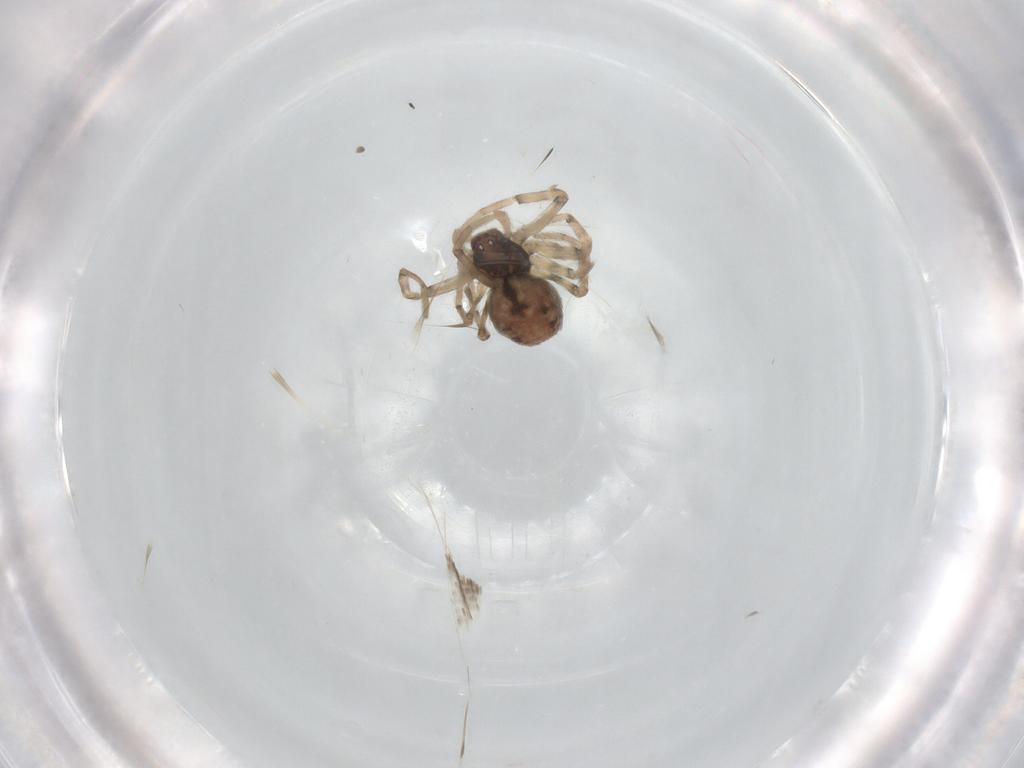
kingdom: Animalia
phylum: Arthropoda
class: Arachnida
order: Araneae
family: Dictynidae
